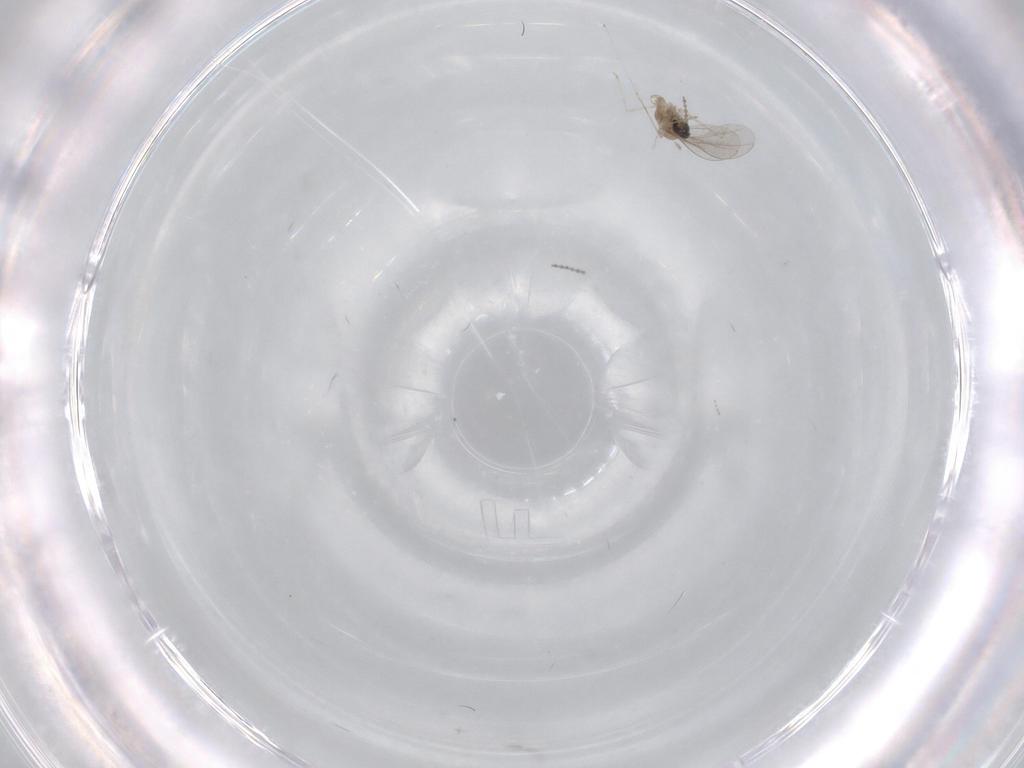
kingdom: Animalia
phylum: Arthropoda
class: Insecta
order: Diptera
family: Cecidomyiidae
